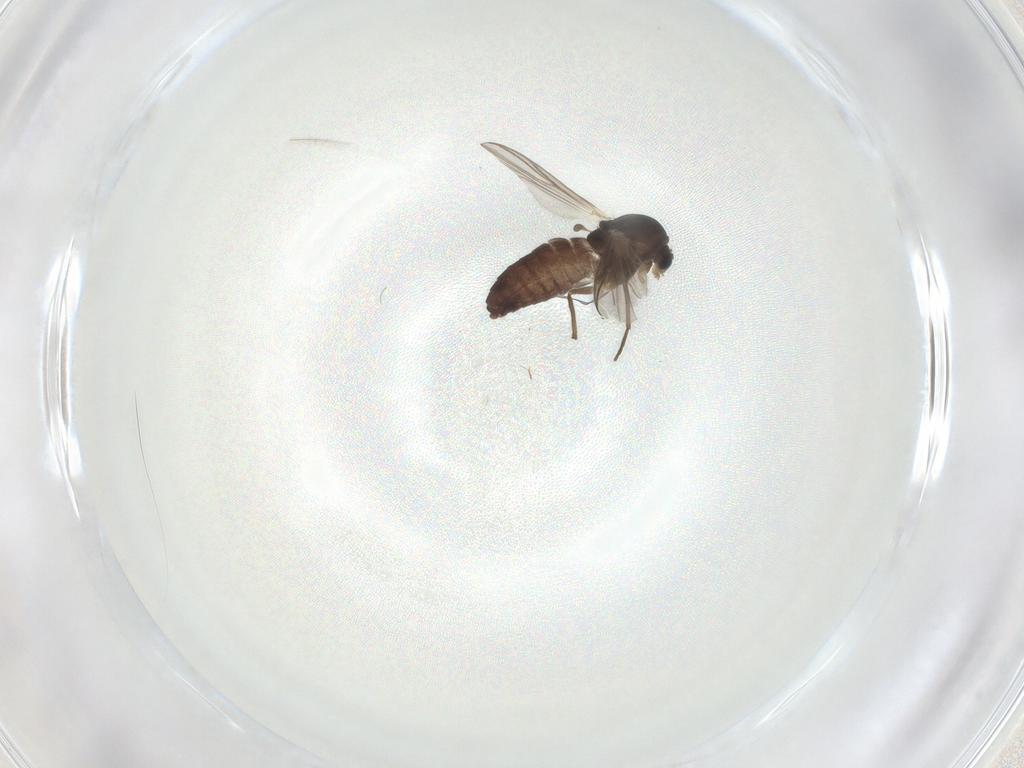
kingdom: Animalia
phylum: Arthropoda
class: Insecta
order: Diptera
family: Chironomidae
